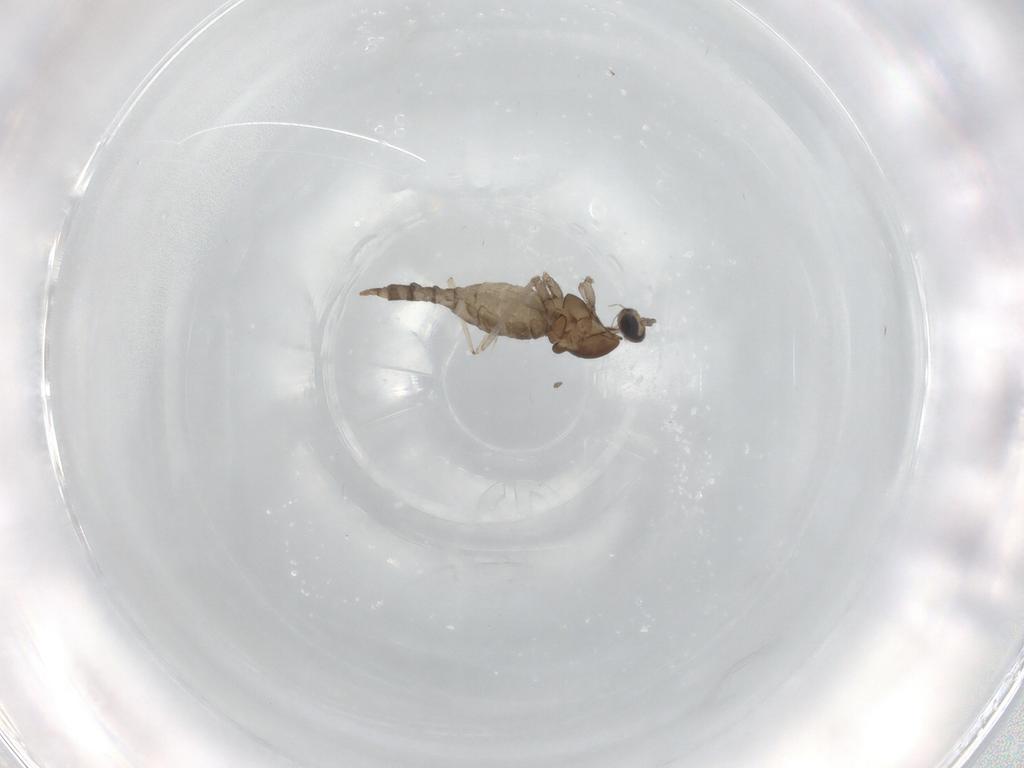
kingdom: Animalia
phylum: Arthropoda
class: Insecta
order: Diptera
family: Cecidomyiidae
